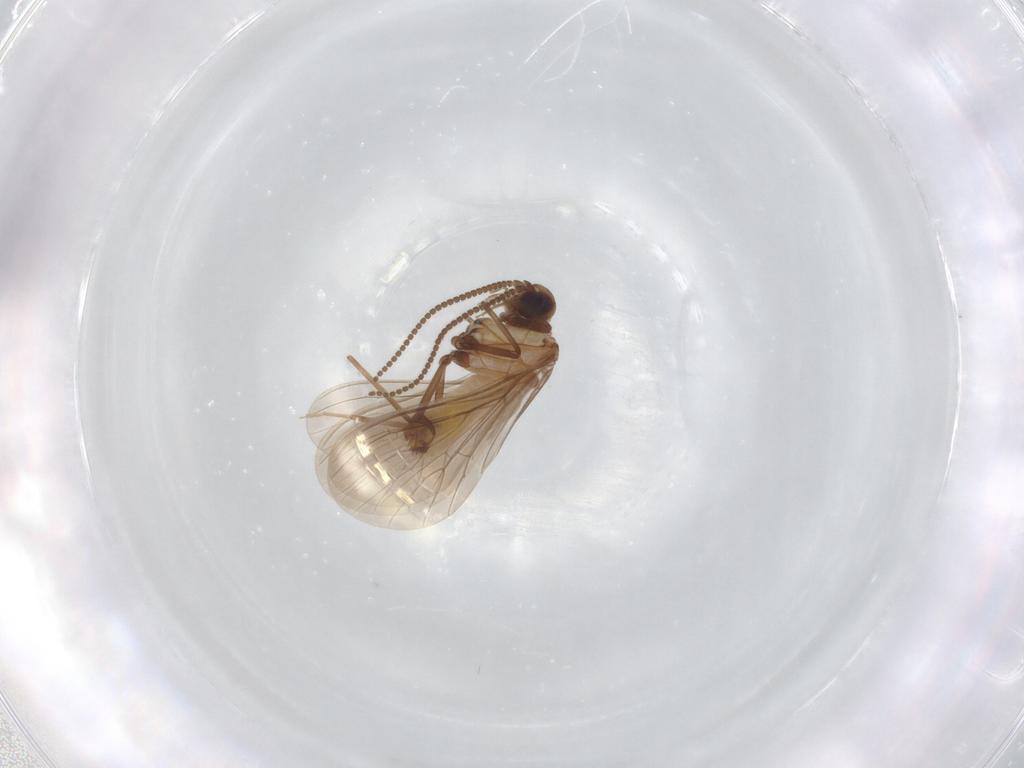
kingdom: Animalia
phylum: Arthropoda
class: Insecta
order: Neuroptera
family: Coniopterygidae
